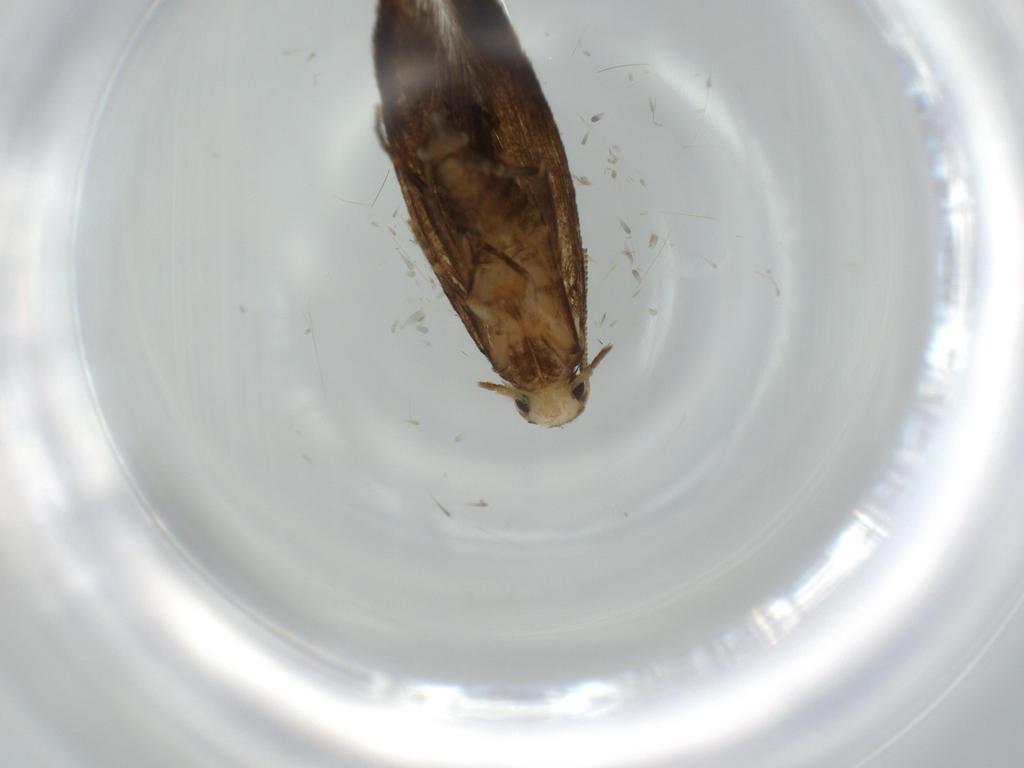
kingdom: Animalia
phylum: Arthropoda
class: Insecta
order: Lepidoptera
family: Tineidae
